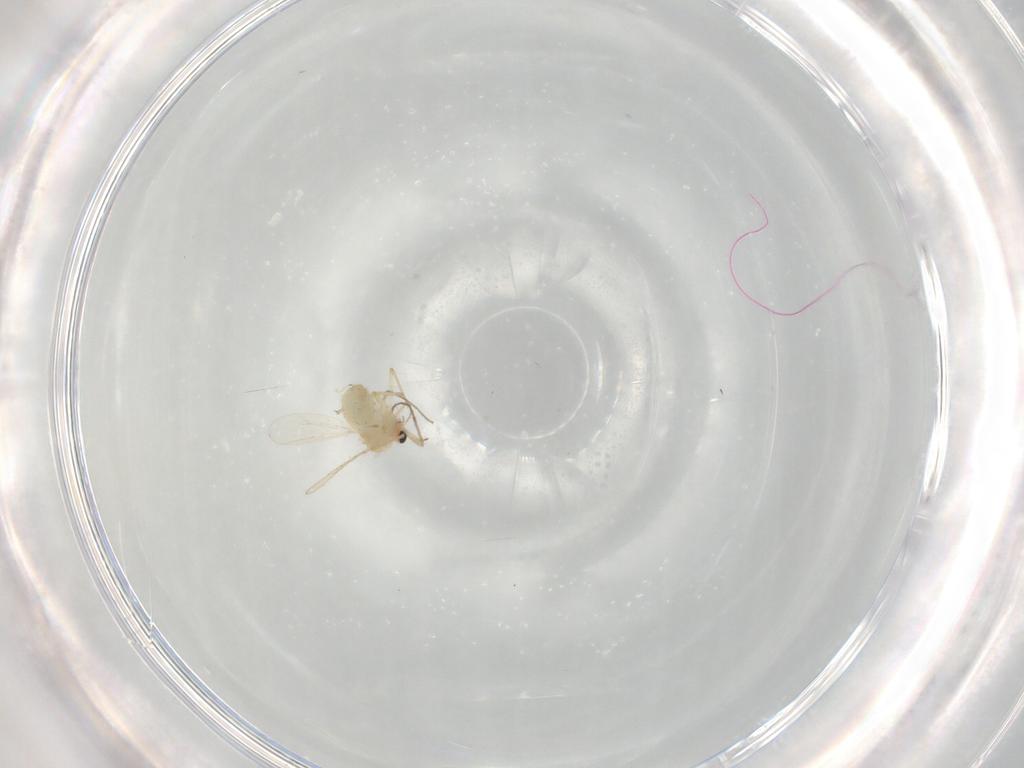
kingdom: Animalia
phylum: Arthropoda
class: Insecta
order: Diptera
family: Chironomidae
